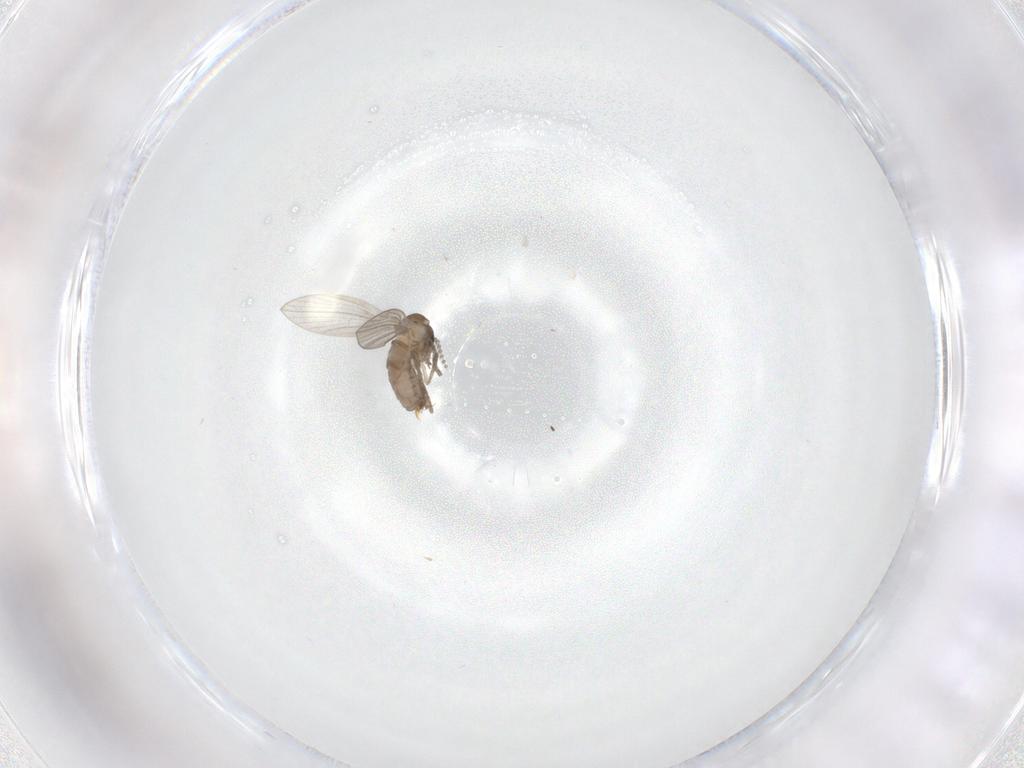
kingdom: Animalia
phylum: Arthropoda
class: Insecta
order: Diptera
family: Psychodidae
